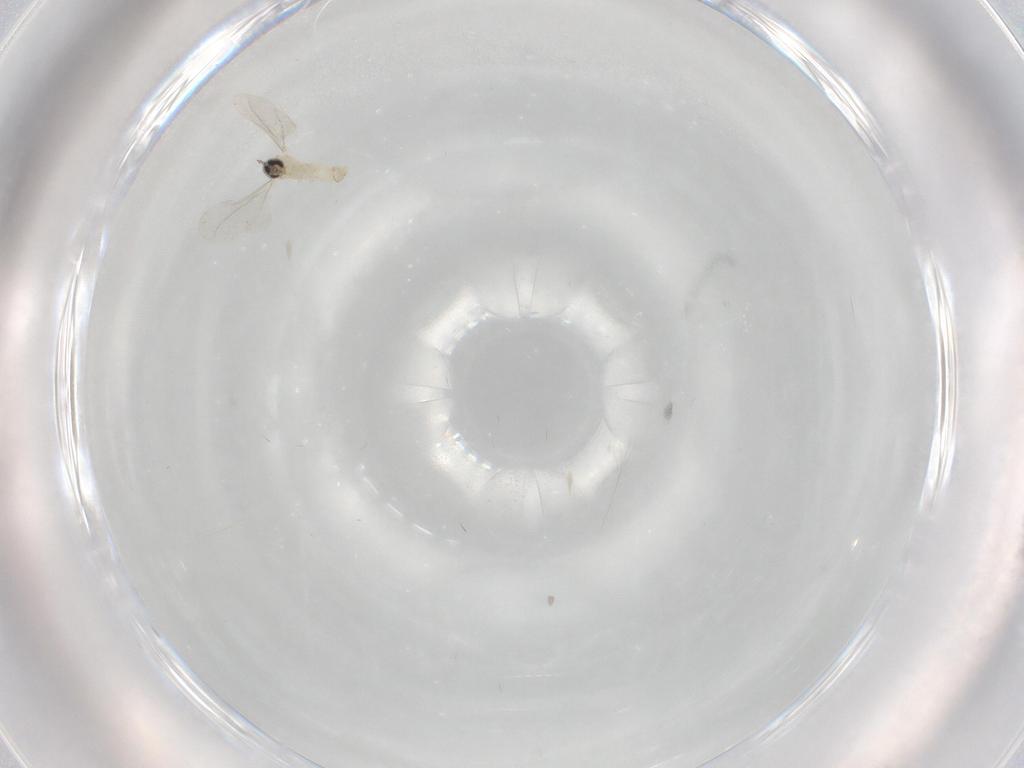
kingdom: Animalia
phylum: Arthropoda
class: Insecta
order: Diptera
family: Cecidomyiidae
